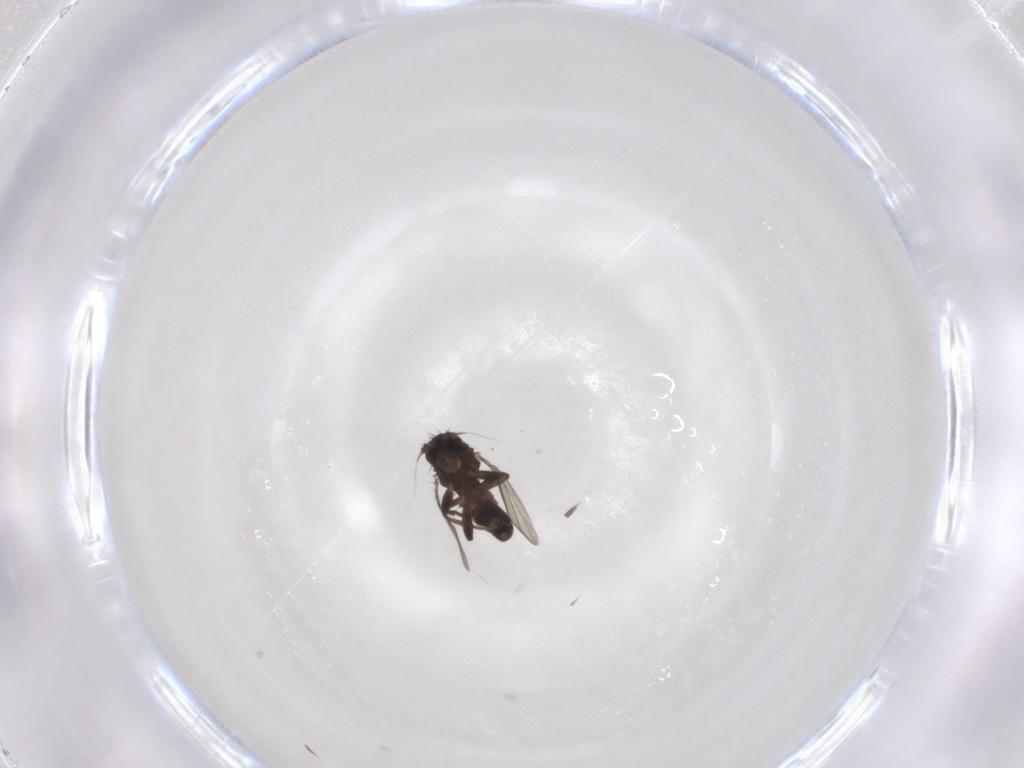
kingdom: Animalia
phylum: Arthropoda
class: Insecta
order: Diptera
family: Sphaeroceridae
